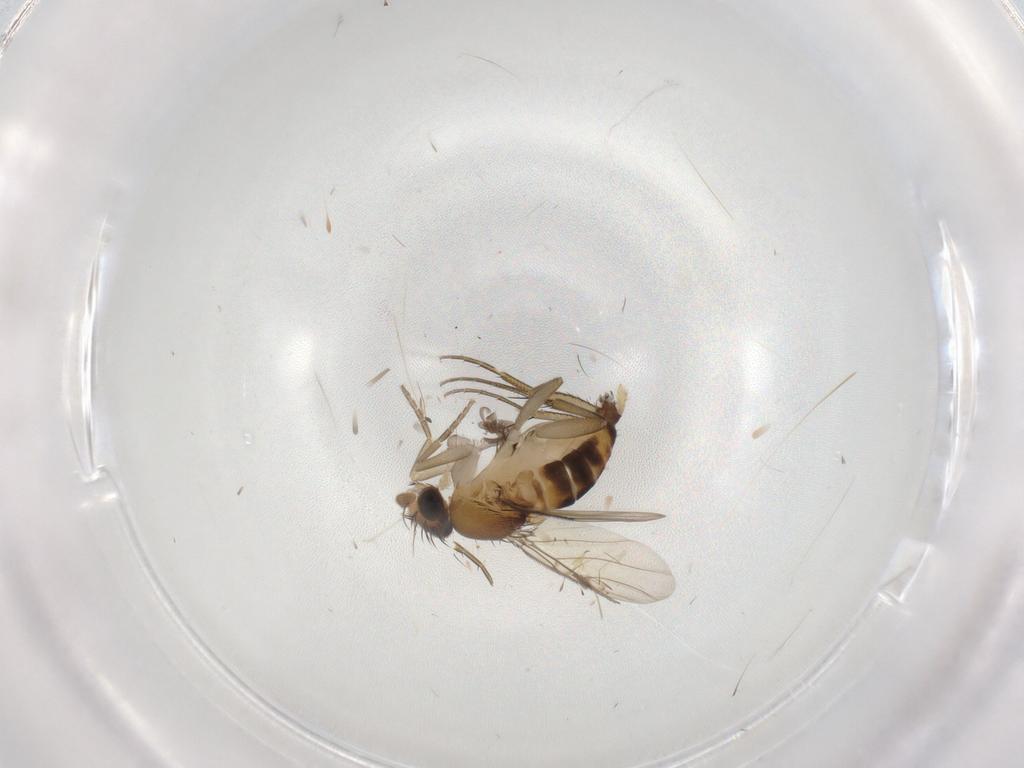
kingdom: Animalia
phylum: Arthropoda
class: Insecta
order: Diptera
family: Phoridae
